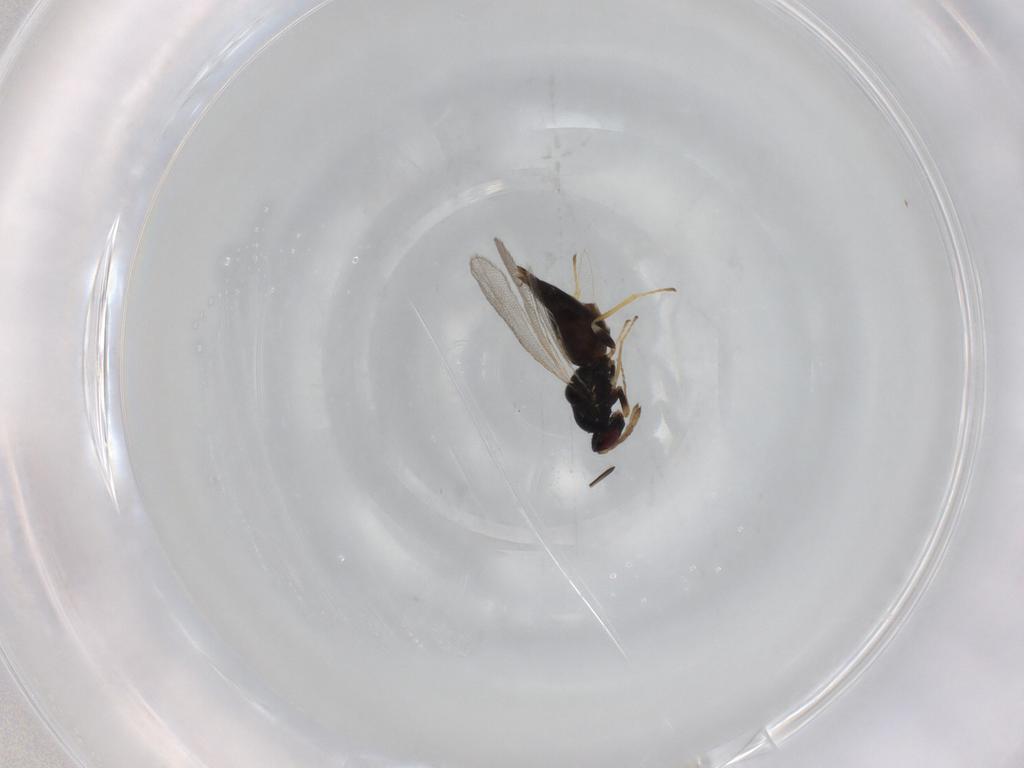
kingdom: Animalia
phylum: Arthropoda
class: Insecta
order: Hymenoptera
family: Eulophidae
